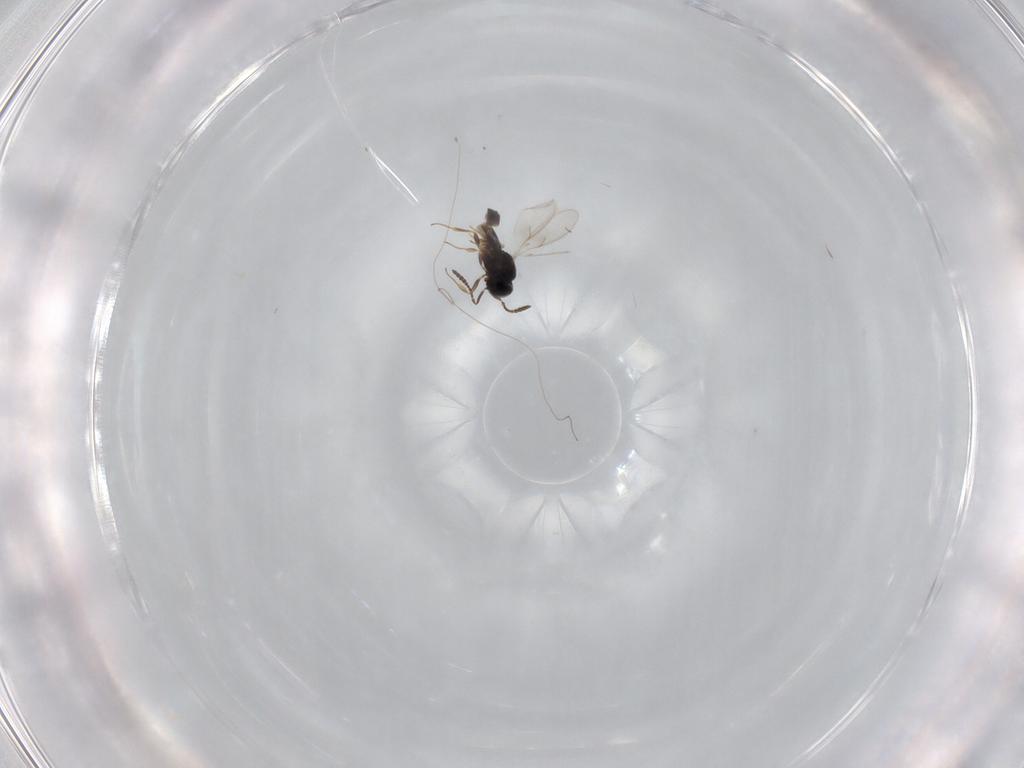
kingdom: Animalia
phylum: Arthropoda
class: Insecta
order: Hymenoptera
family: Scelionidae
